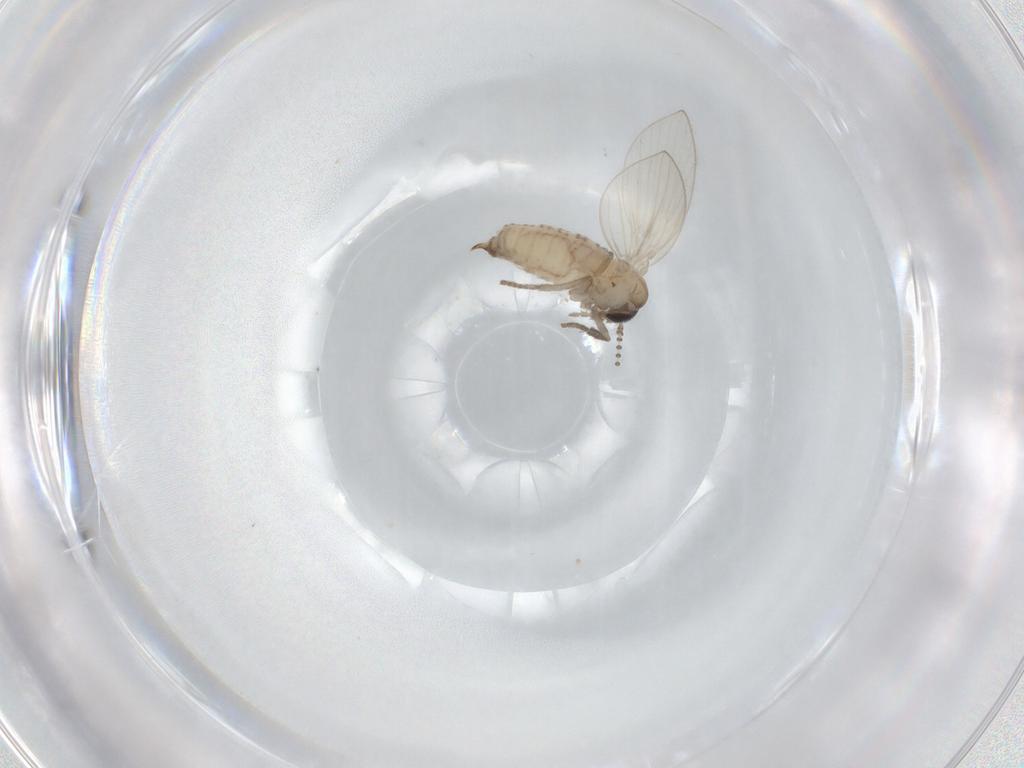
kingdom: Animalia
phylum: Arthropoda
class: Insecta
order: Diptera
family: Psychodidae
